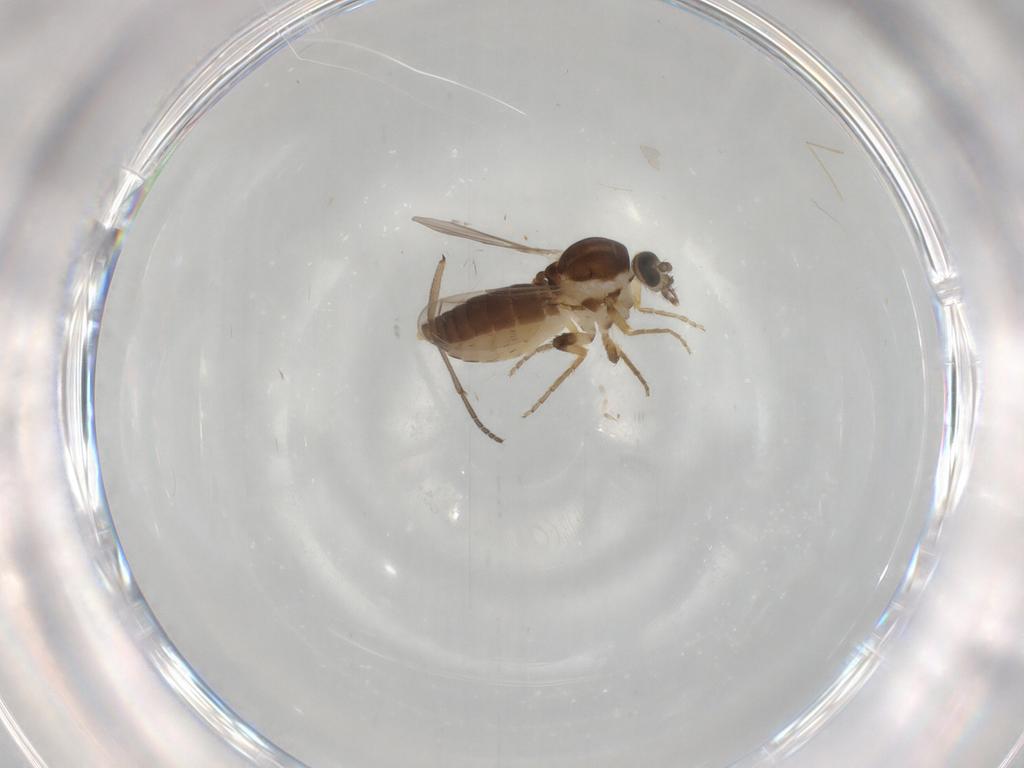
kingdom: Animalia
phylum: Arthropoda
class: Insecta
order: Diptera
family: Ceratopogonidae
